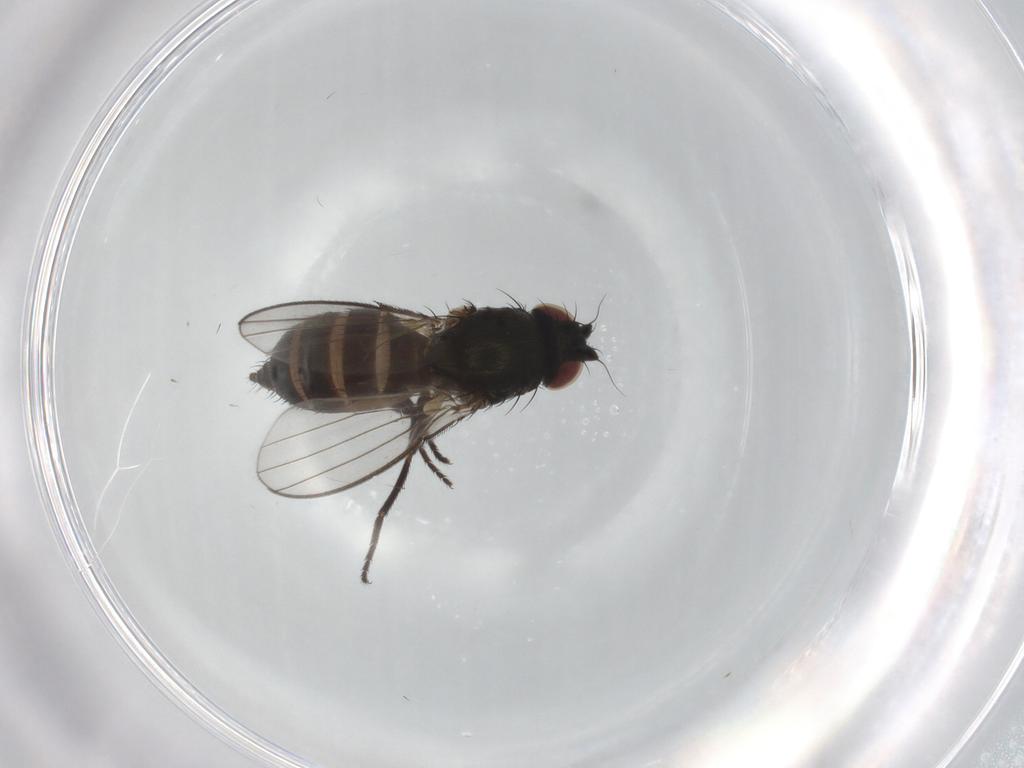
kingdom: Animalia
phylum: Arthropoda
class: Insecta
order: Diptera
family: Milichiidae
